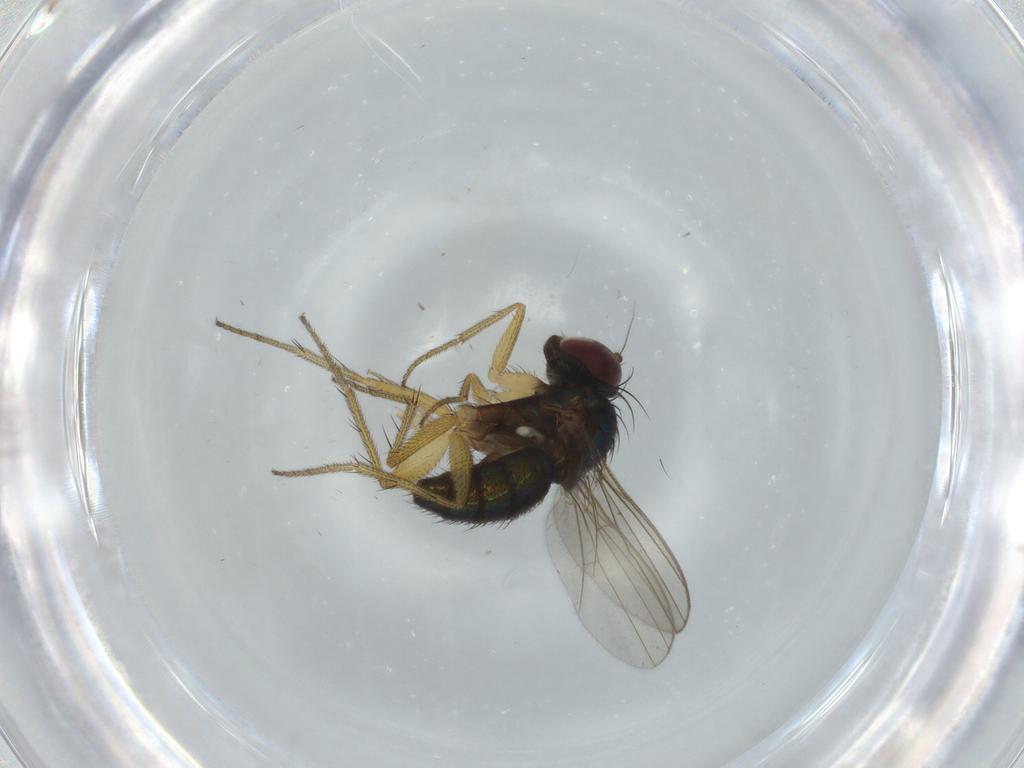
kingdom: Animalia
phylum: Arthropoda
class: Insecta
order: Diptera
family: Dolichopodidae
